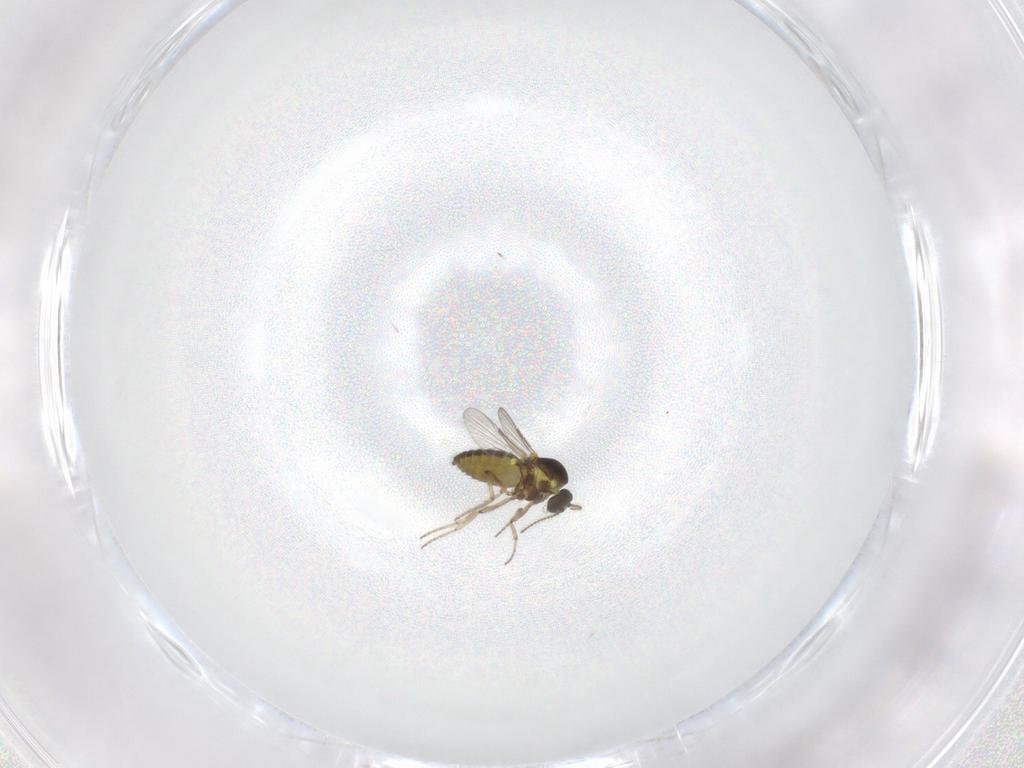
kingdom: Animalia
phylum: Arthropoda
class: Insecta
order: Diptera
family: Ceratopogonidae
